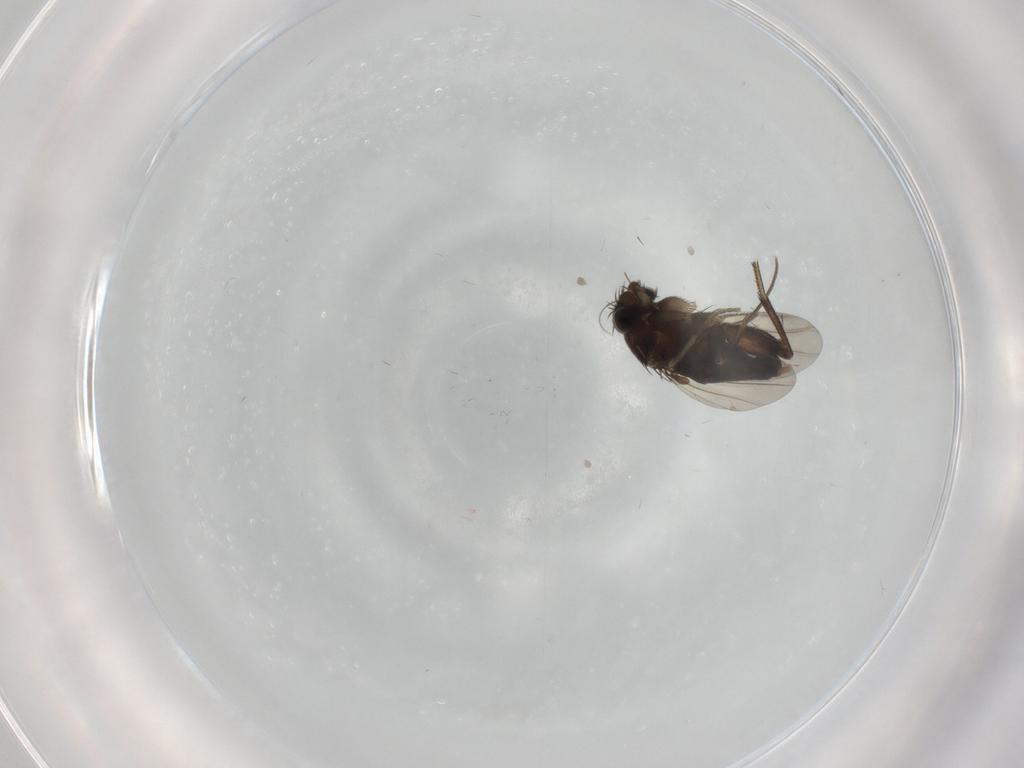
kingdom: Animalia
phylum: Arthropoda
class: Insecta
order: Diptera
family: Phoridae
